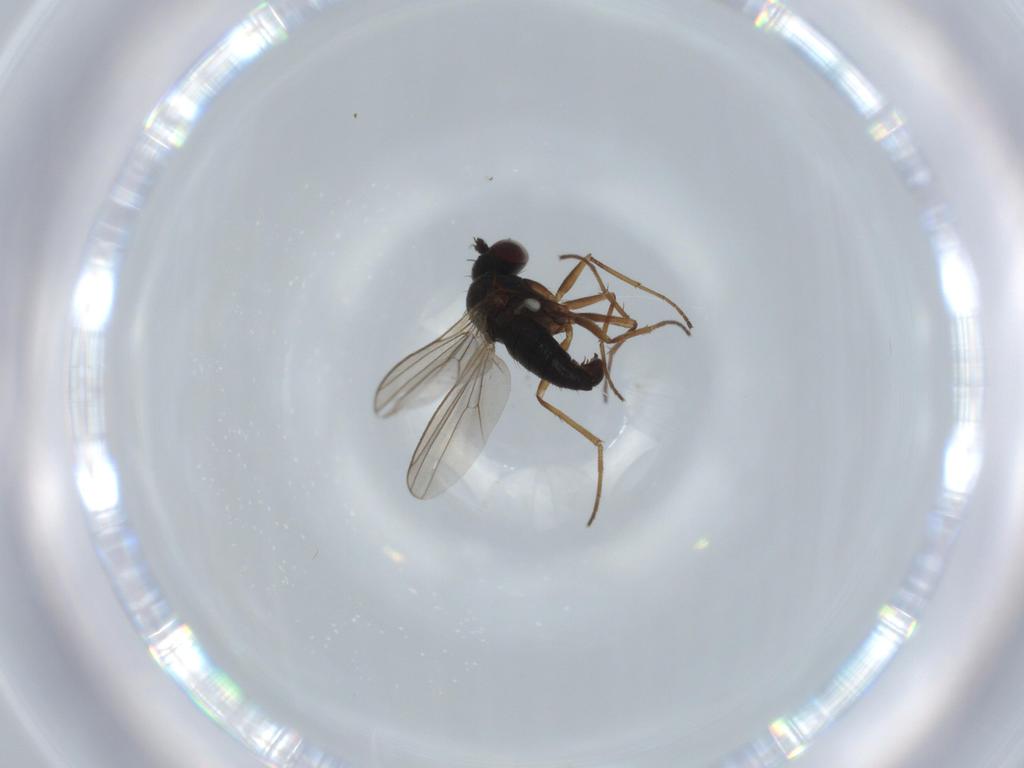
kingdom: Animalia
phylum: Arthropoda
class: Insecta
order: Diptera
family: Dolichopodidae
